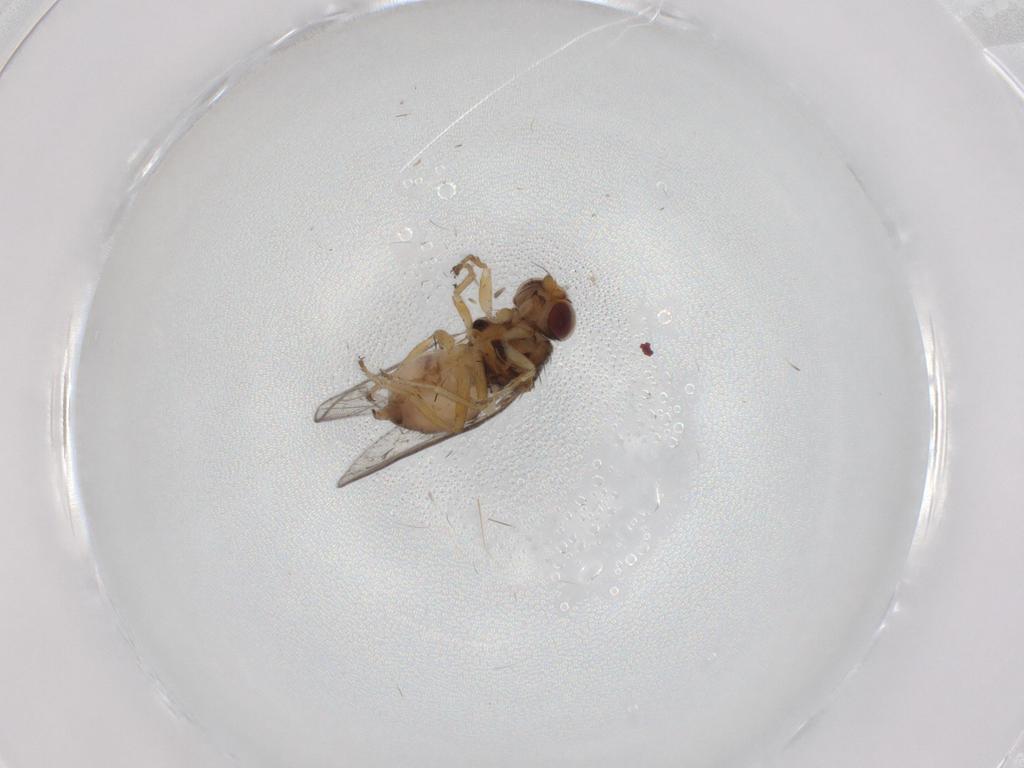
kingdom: Animalia
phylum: Arthropoda
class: Insecta
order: Diptera
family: Chloropidae
